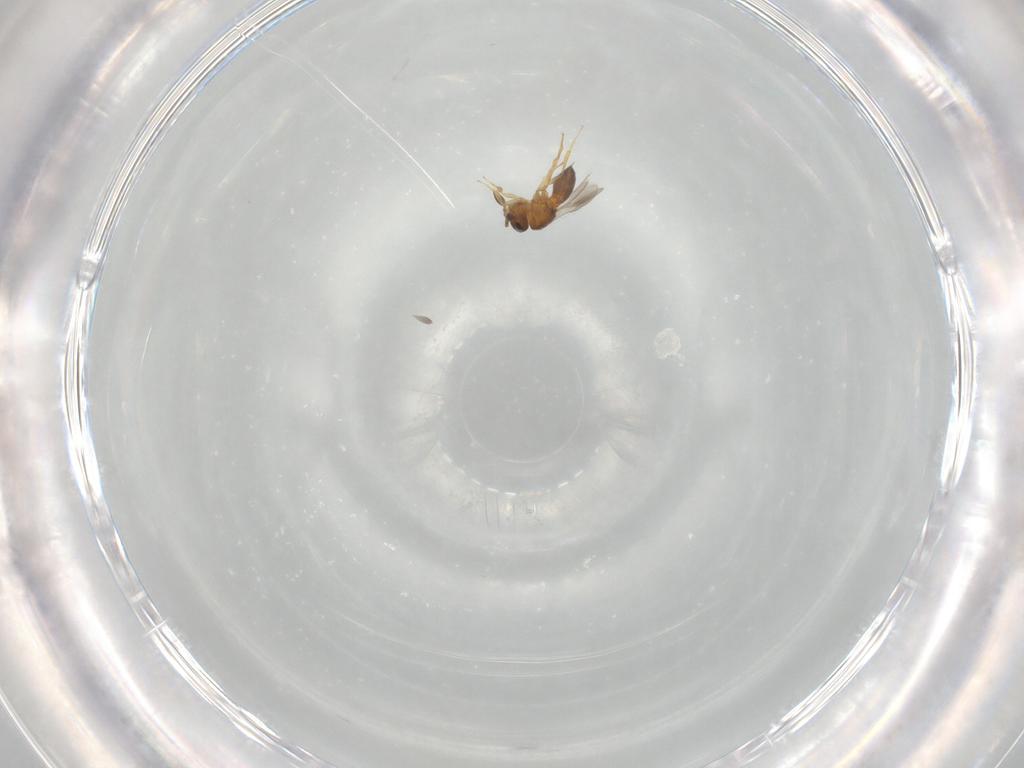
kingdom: Animalia
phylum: Arthropoda
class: Insecta
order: Hymenoptera
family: Scelionidae
